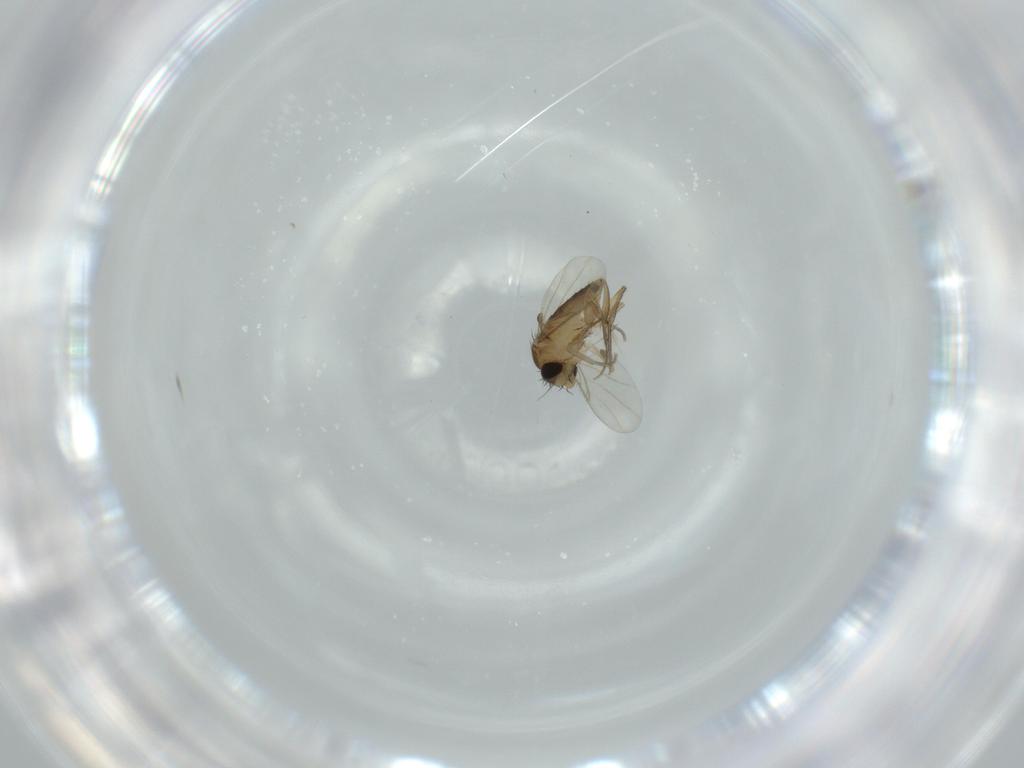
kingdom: Animalia
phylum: Arthropoda
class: Insecta
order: Diptera
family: Phoridae
